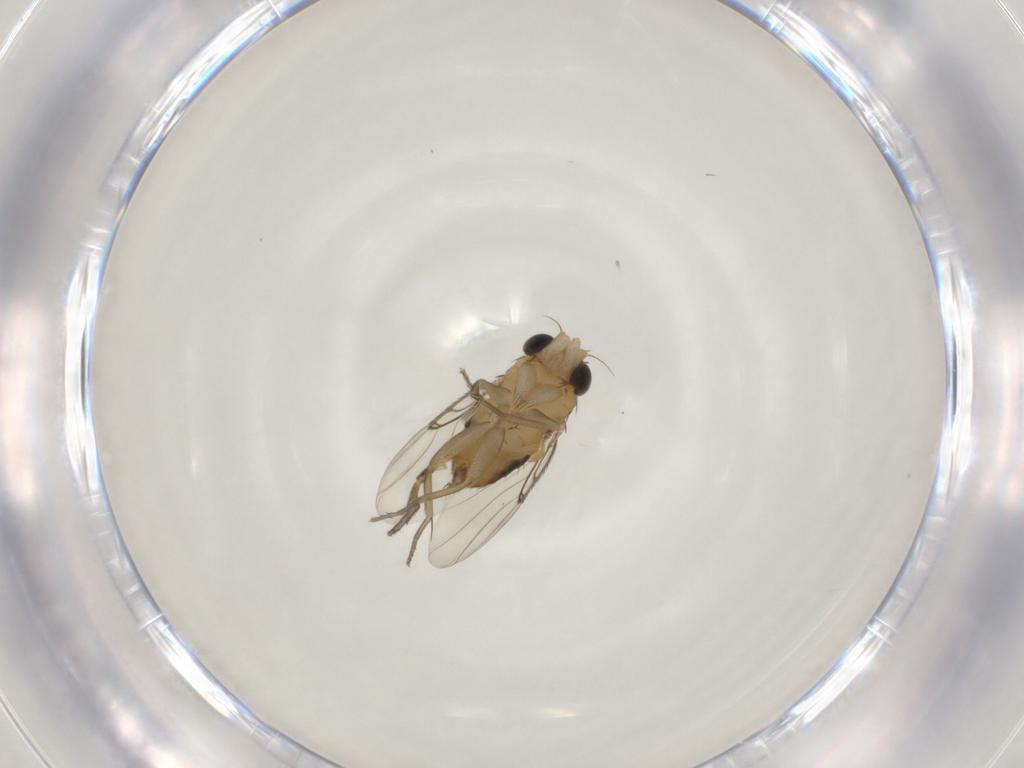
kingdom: Animalia
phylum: Arthropoda
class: Insecta
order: Diptera
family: Phoridae
